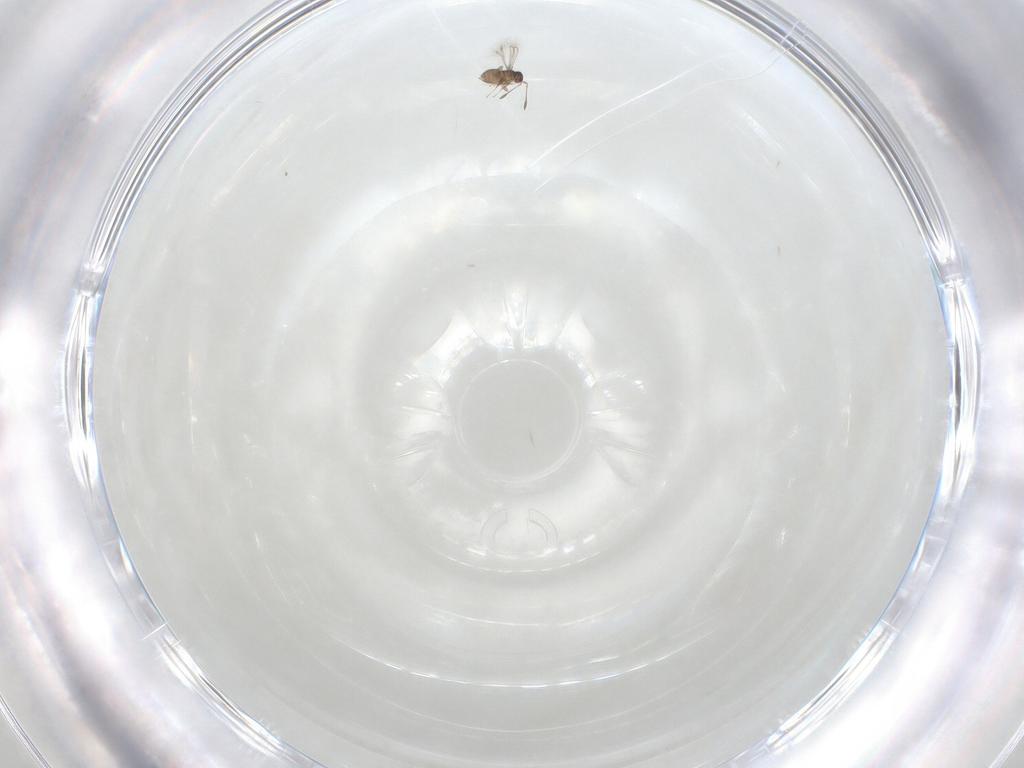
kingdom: Animalia
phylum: Arthropoda
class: Insecta
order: Hymenoptera
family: Mymaridae
